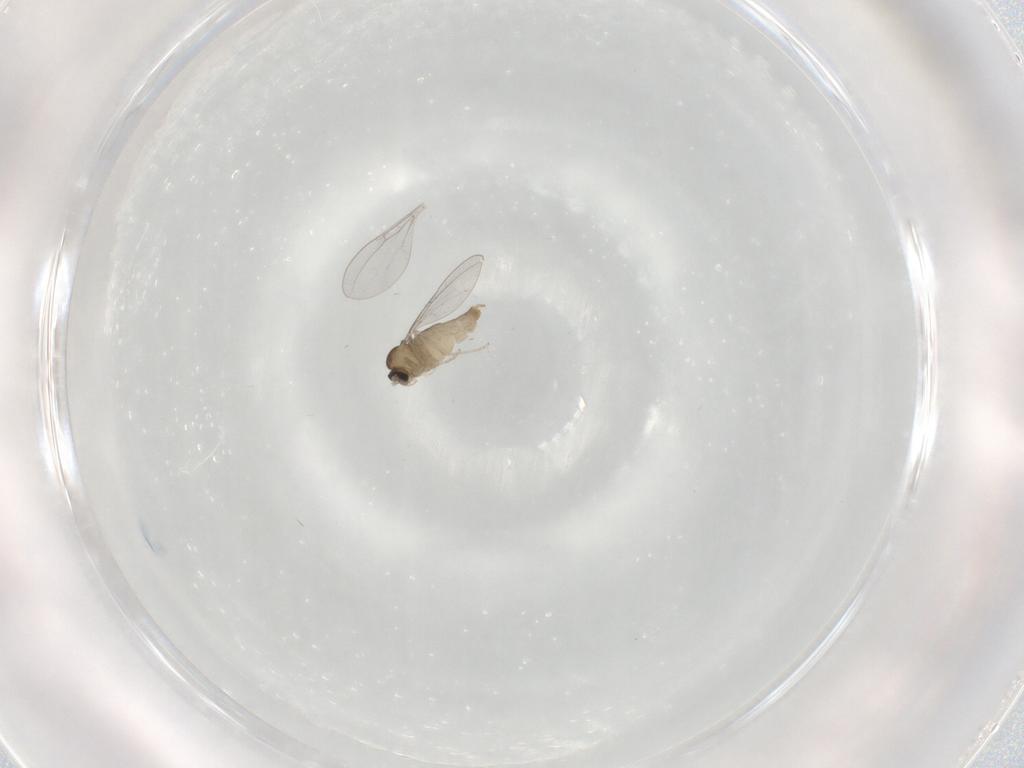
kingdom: Animalia
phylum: Arthropoda
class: Insecta
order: Diptera
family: Cecidomyiidae
